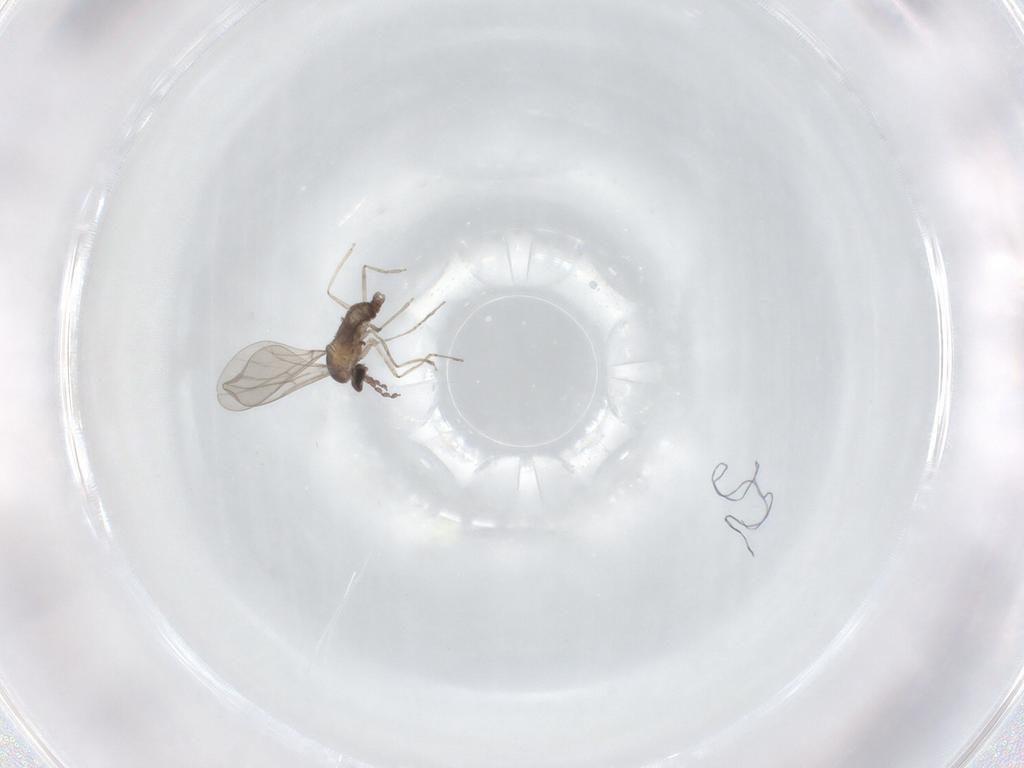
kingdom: Animalia
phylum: Arthropoda
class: Insecta
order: Diptera
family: Cecidomyiidae
